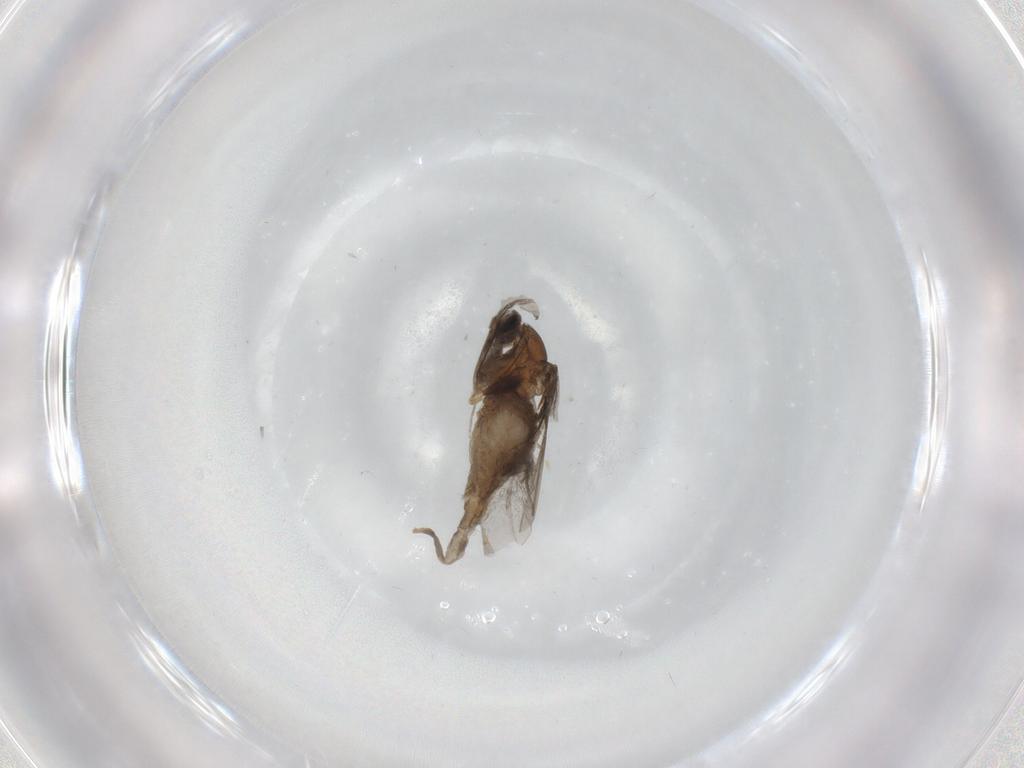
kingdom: Animalia
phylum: Arthropoda
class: Insecta
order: Diptera
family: Cecidomyiidae
